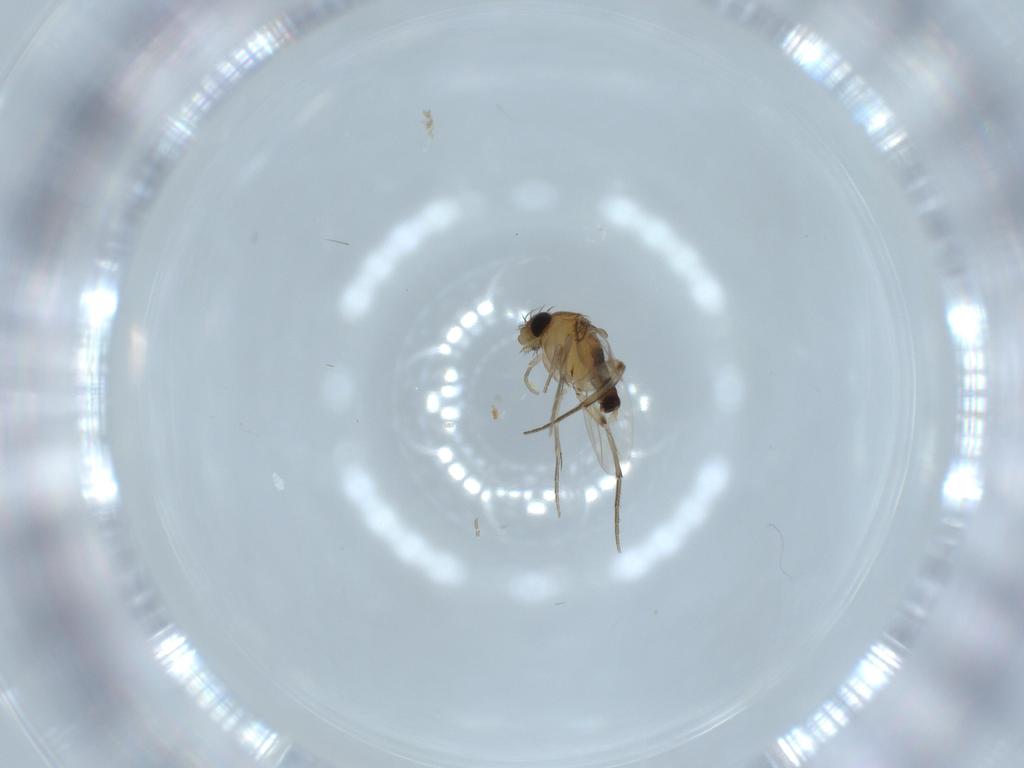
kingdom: Animalia
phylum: Arthropoda
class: Insecta
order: Diptera
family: Phoridae
